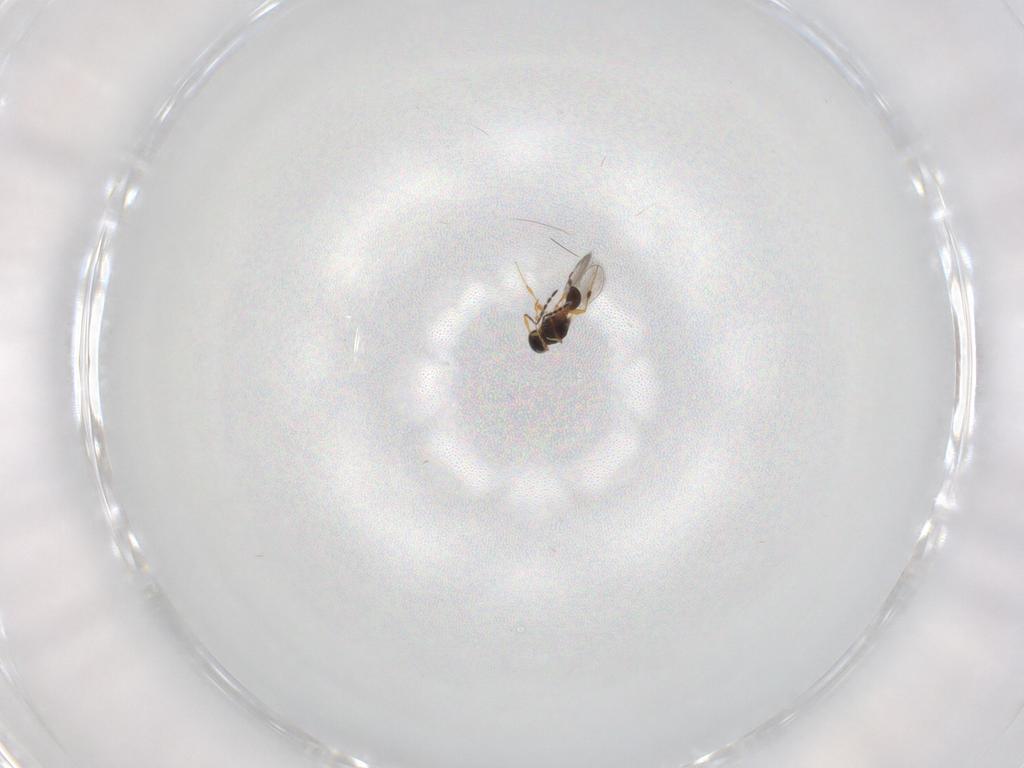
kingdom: Animalia
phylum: Arthropoda
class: Insecta
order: Hymenoptera
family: Platygastridae
